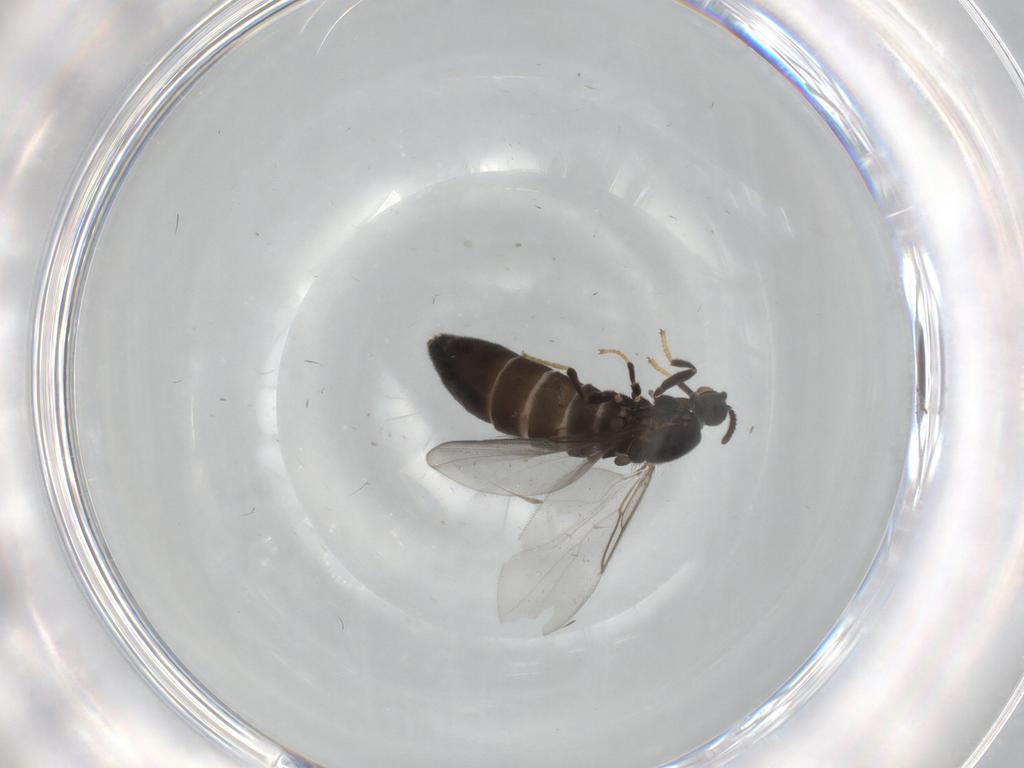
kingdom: Animalia
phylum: Arthropoda
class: Insecta
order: Diptera
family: Scatopsidae
